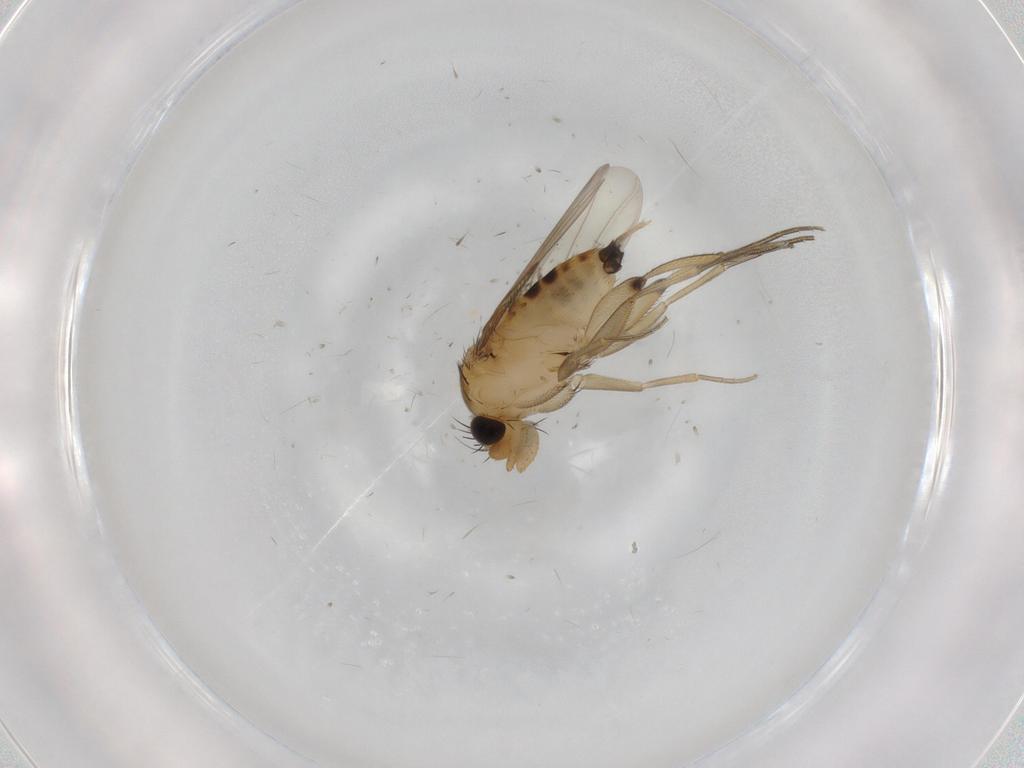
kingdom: Animalia
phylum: Arthropoda
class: Insecta
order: Diptera
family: Phoridae
